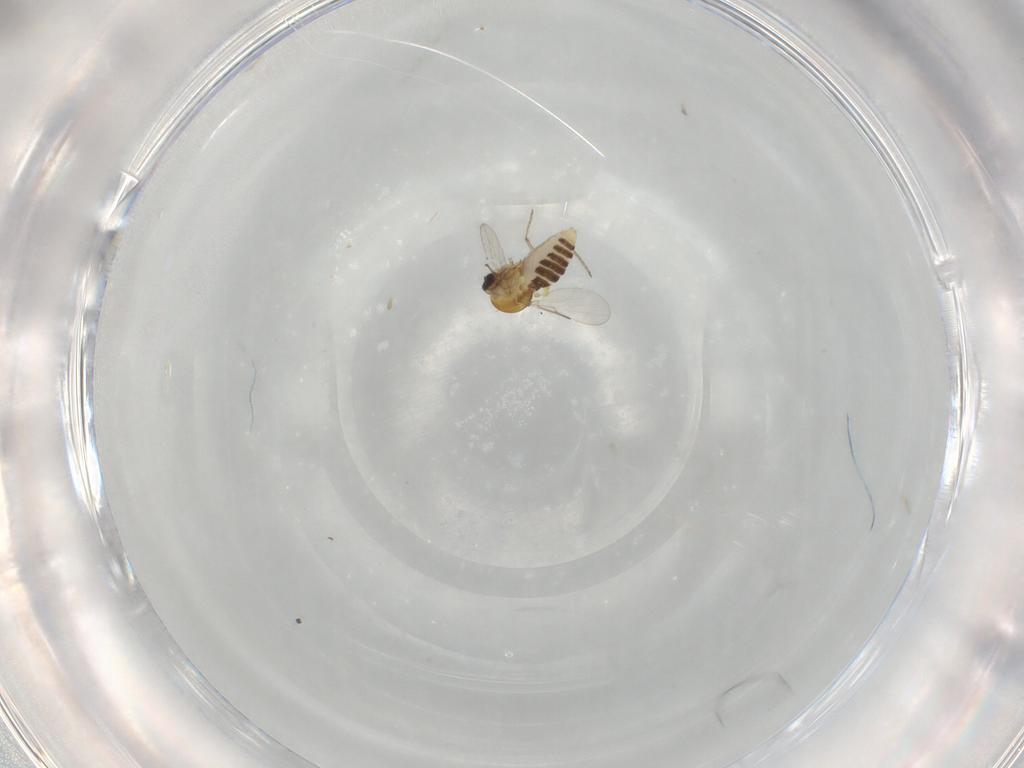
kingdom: Animalia
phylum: Arthropoda
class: Insecta
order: Diptera
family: Ceratopogonidae
